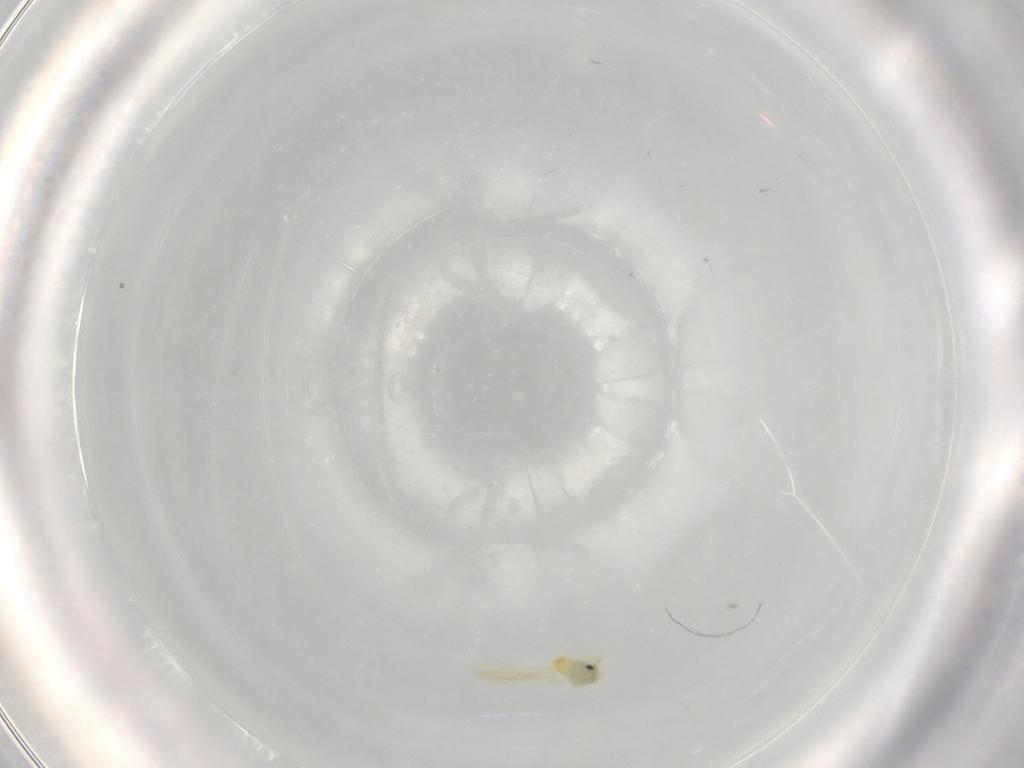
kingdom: Animalia
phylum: Arthropoda
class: Insecta
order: Hemiptera
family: Aleyrodidae
